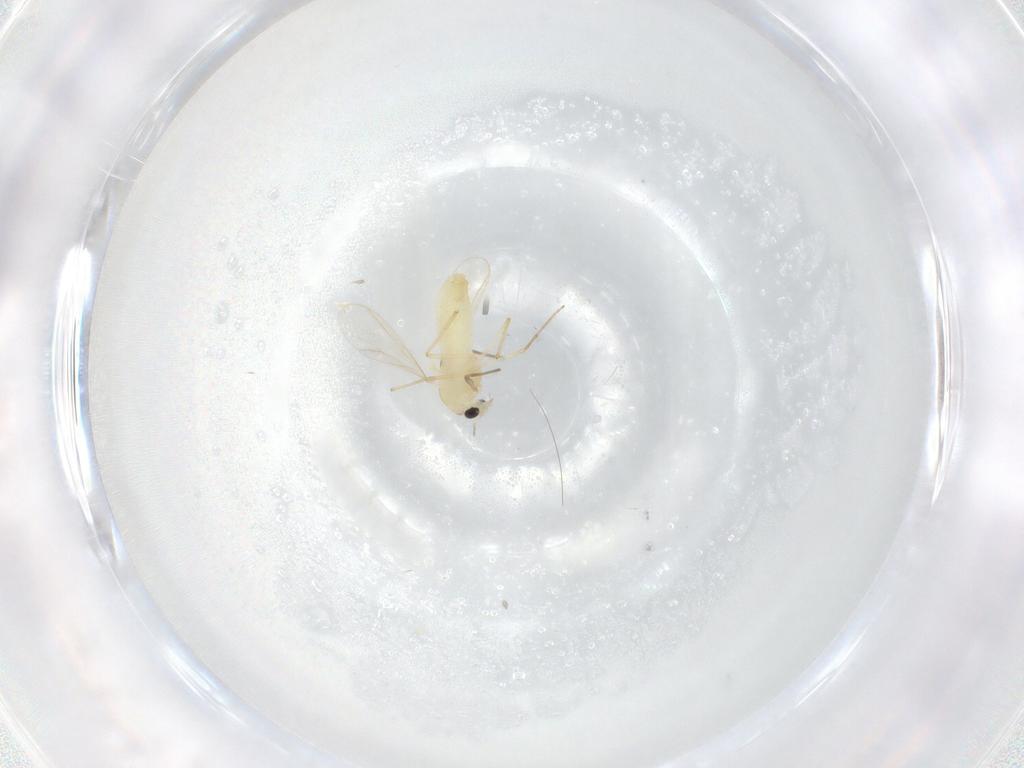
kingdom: Animalia
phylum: Arthropoda
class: Insecta
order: Diptera
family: Chironomidae
